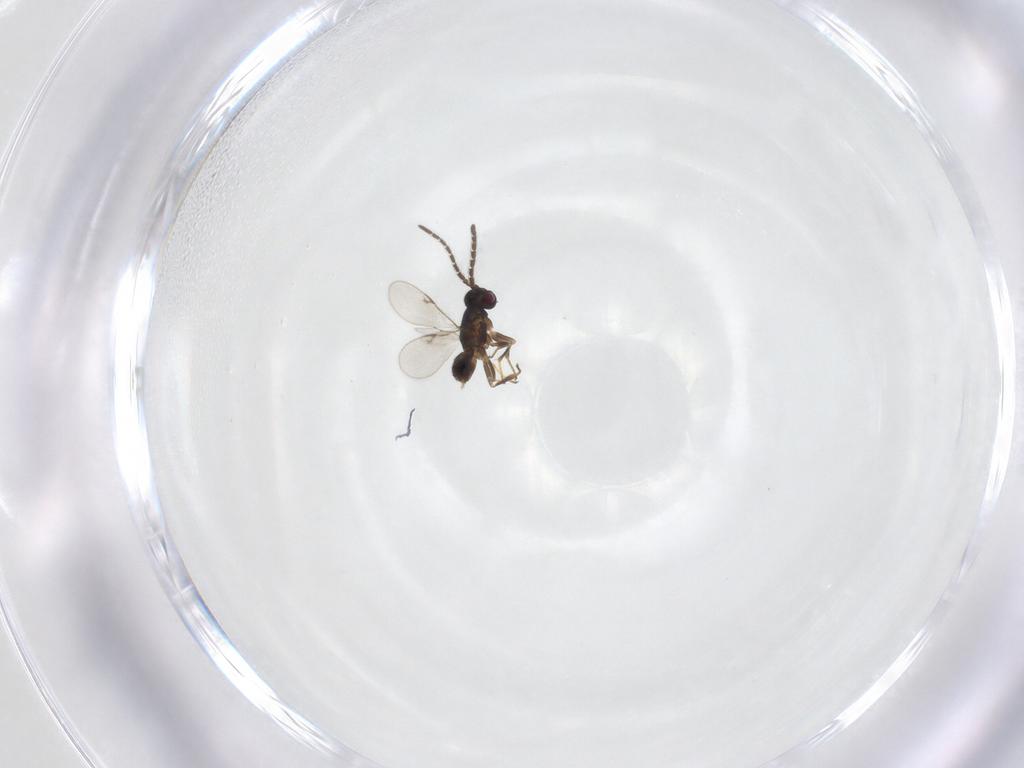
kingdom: Animalia
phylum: Arthropoda
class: Insecta
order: Hymenoptera
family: Encyrtidae
